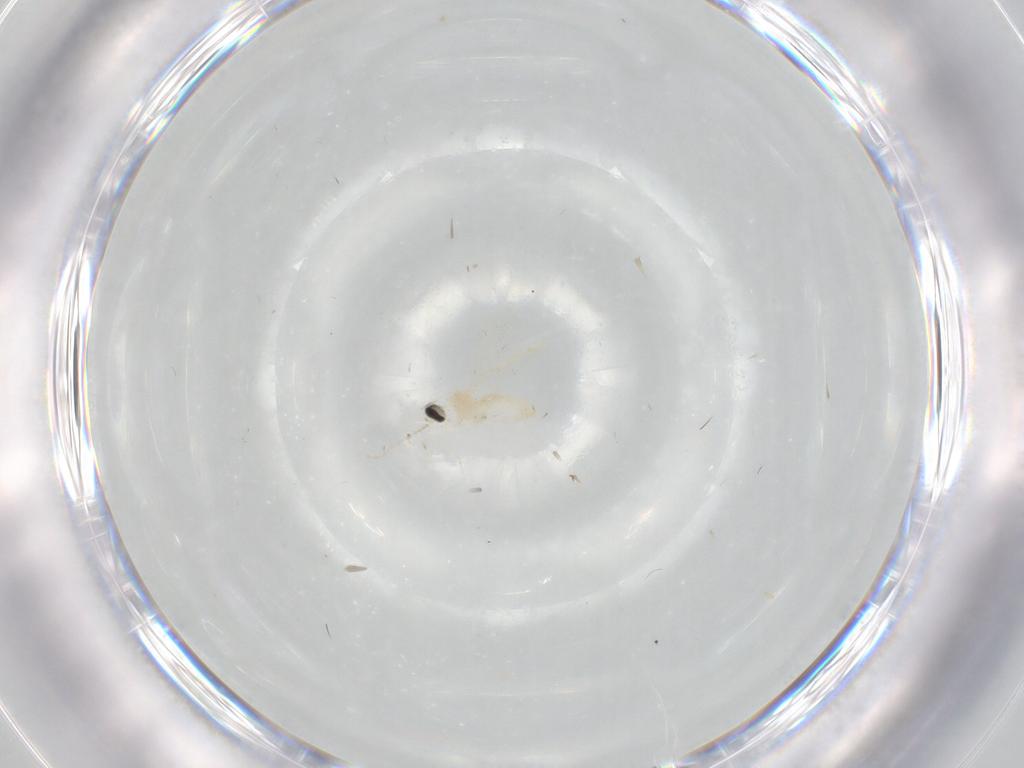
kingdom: Animalia
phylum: Arthropoda
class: Insecta
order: Diptera
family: Cecidomyiidae
